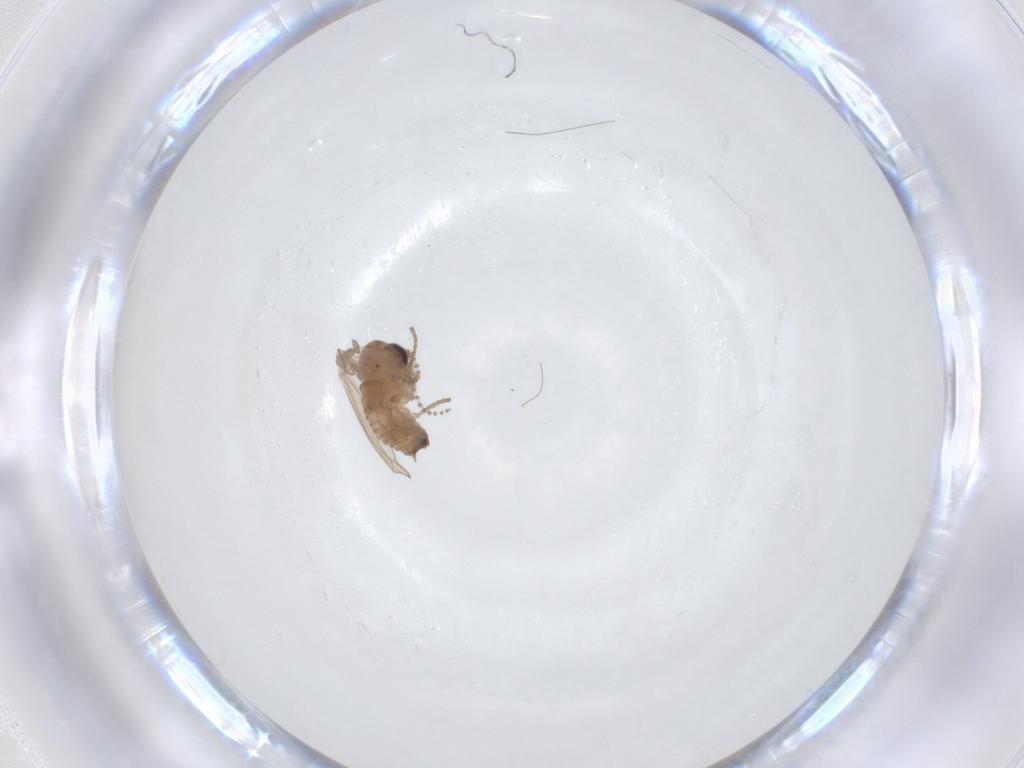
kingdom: Animalia
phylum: Arthropoda
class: Insecta
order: Diptera
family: Psychodidae
